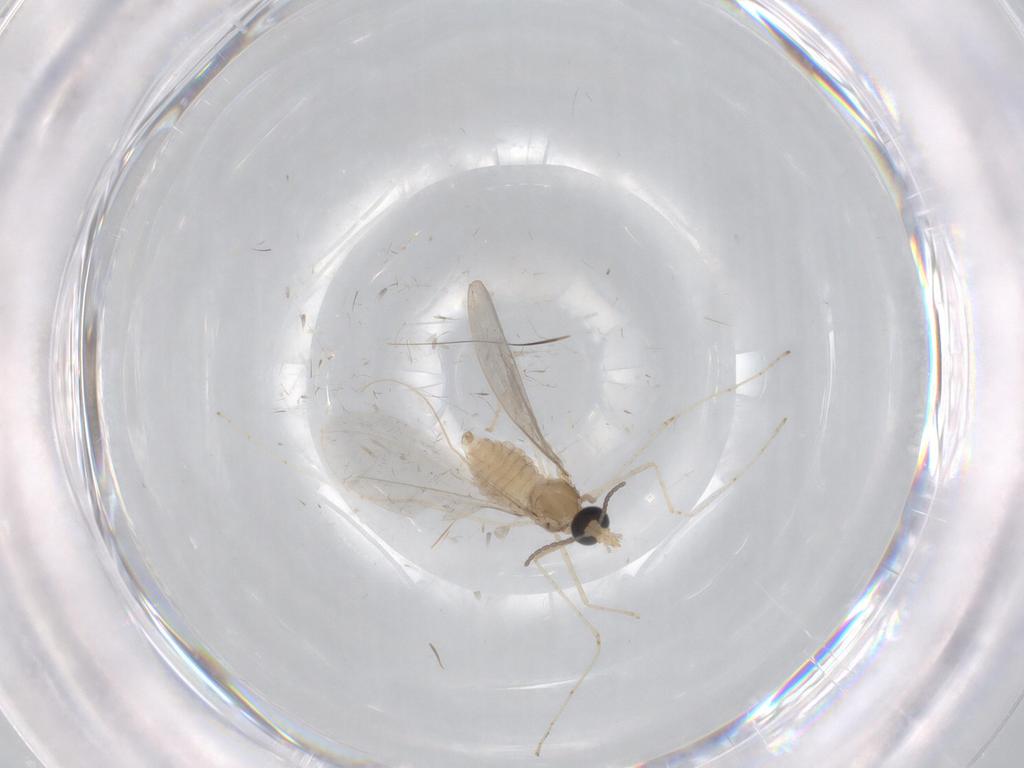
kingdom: Animalia
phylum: Arthropoda
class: Insecta
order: Diptera
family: Cecidomyiidae
